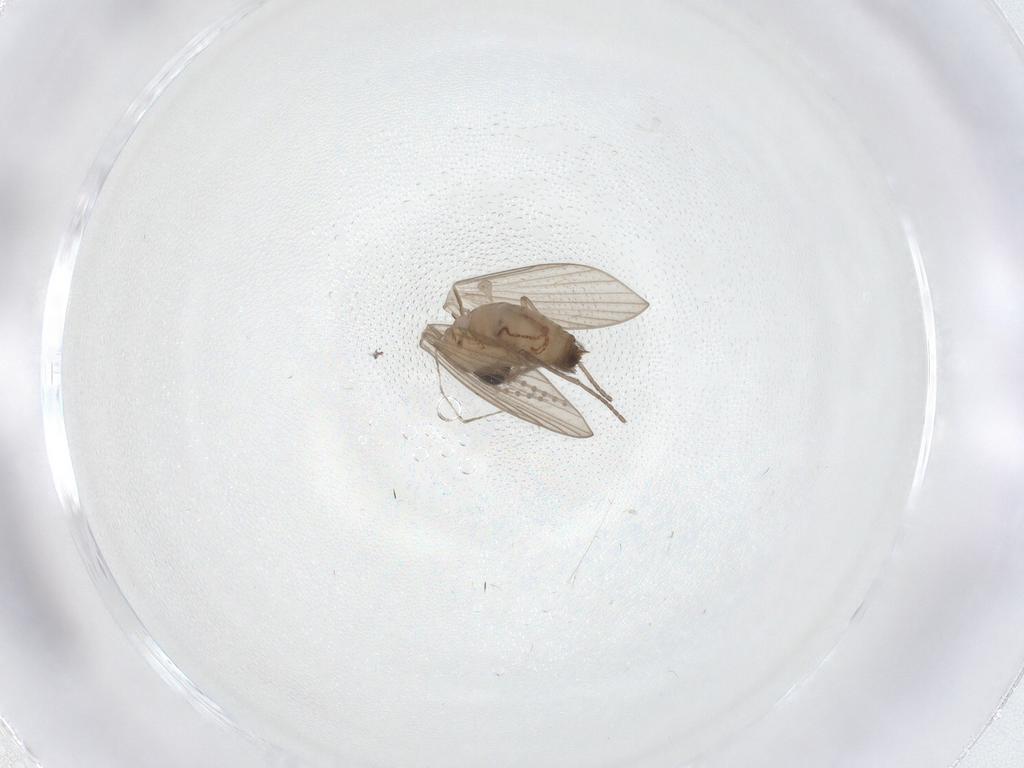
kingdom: Animalia
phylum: Arthropoda
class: Insecta
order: Diptera
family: Psychodidae
